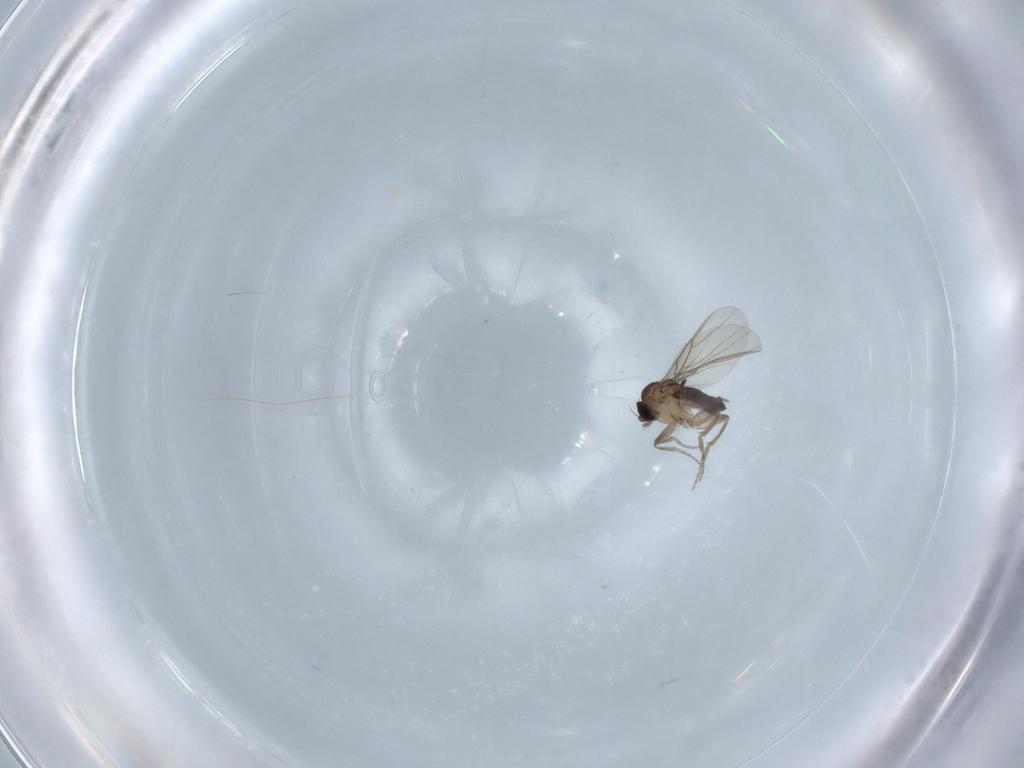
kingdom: Animalia
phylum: Arthropoda
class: Insecta
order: Diptera
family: Phoridae
